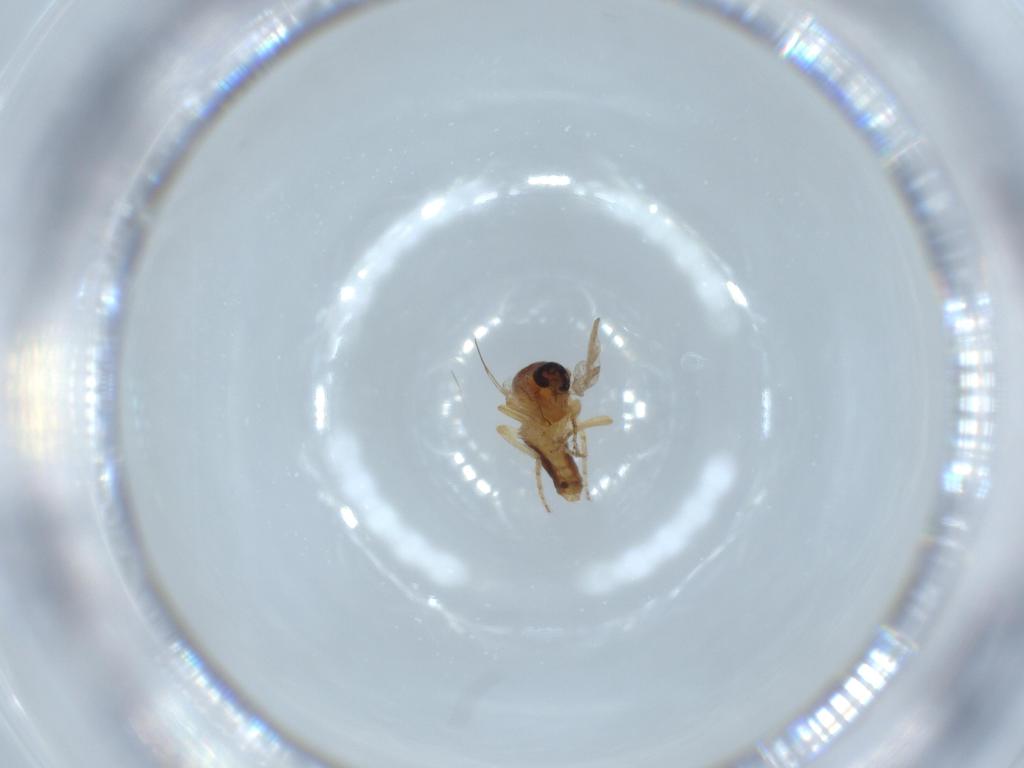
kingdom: Animalia
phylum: Arthropoda
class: Insecta
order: Diptera
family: Ceratopogonidae
